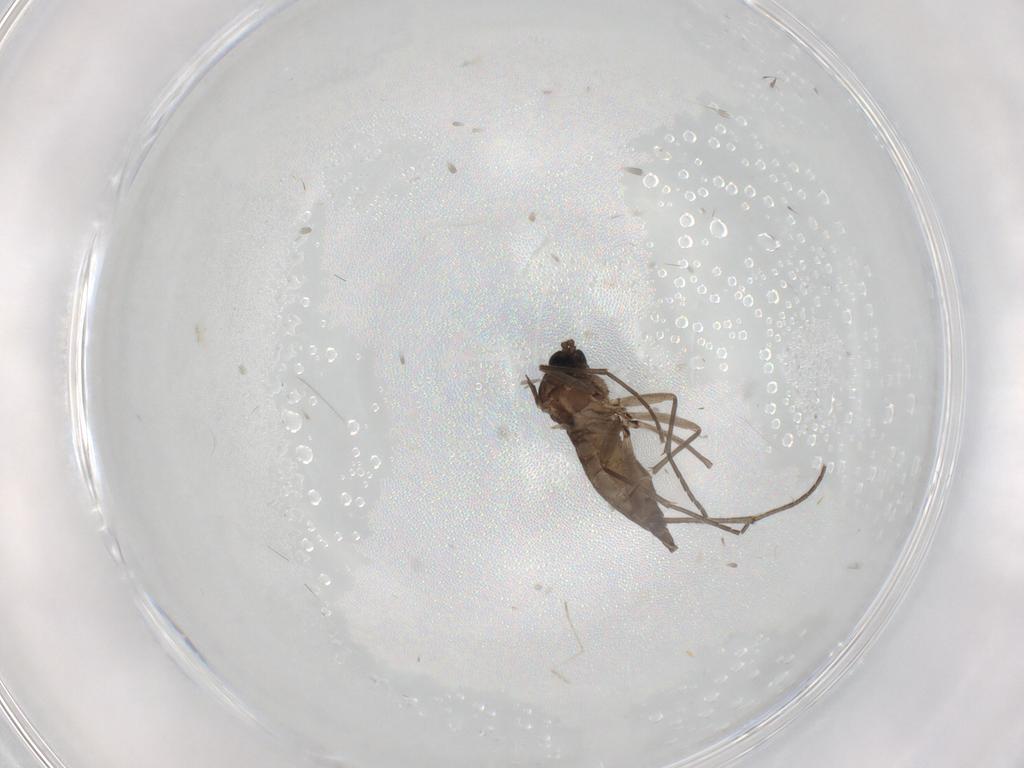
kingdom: Animalia
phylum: Arthropoda
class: Insecta
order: Diptera
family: Sciaridae
